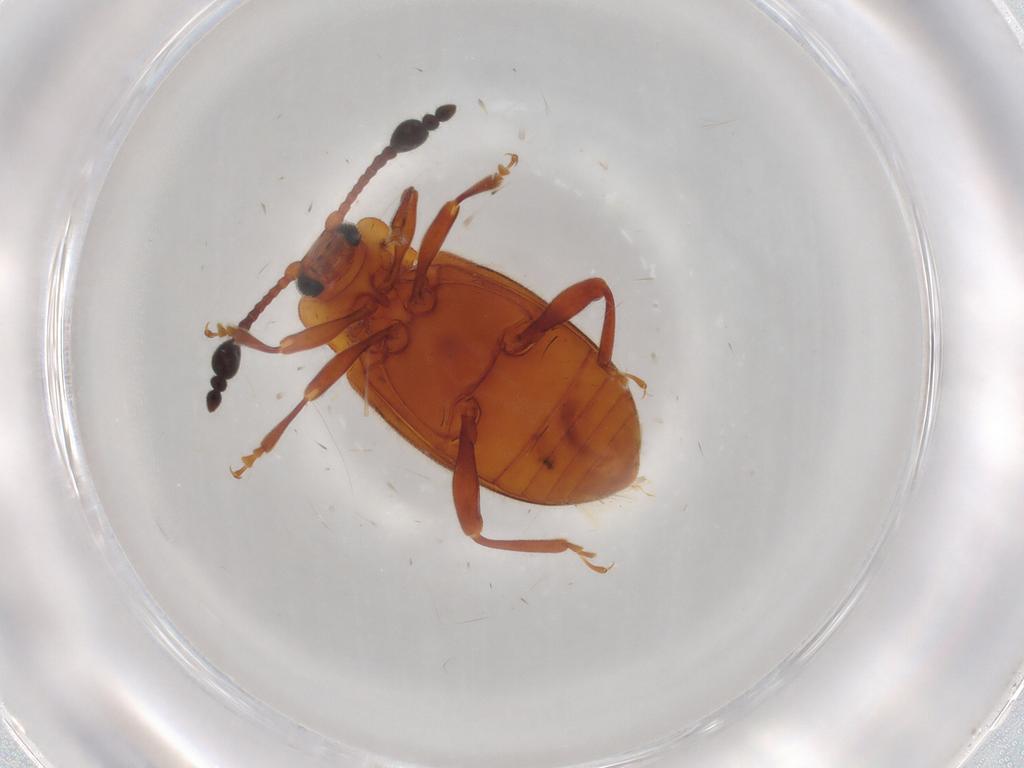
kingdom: Animalia
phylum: Arthropoda
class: Insecta
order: Coleoptera
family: Endomychidae
